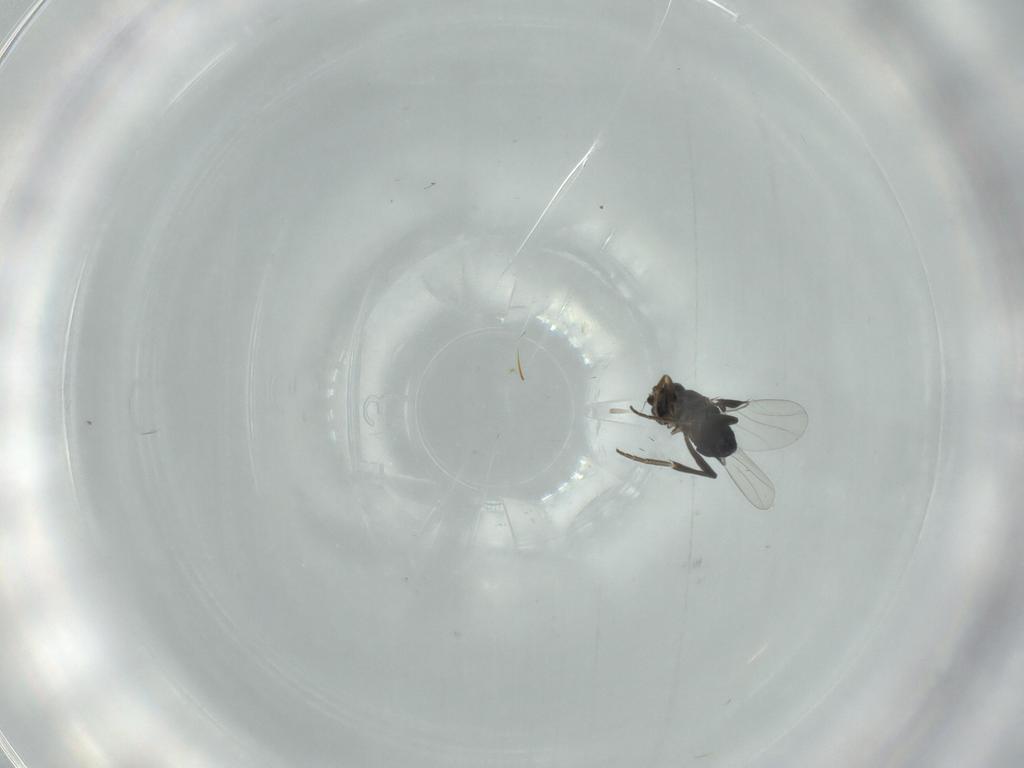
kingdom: Animalia
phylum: Arthropoda
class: Insecta
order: Diptera
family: Phoridae
